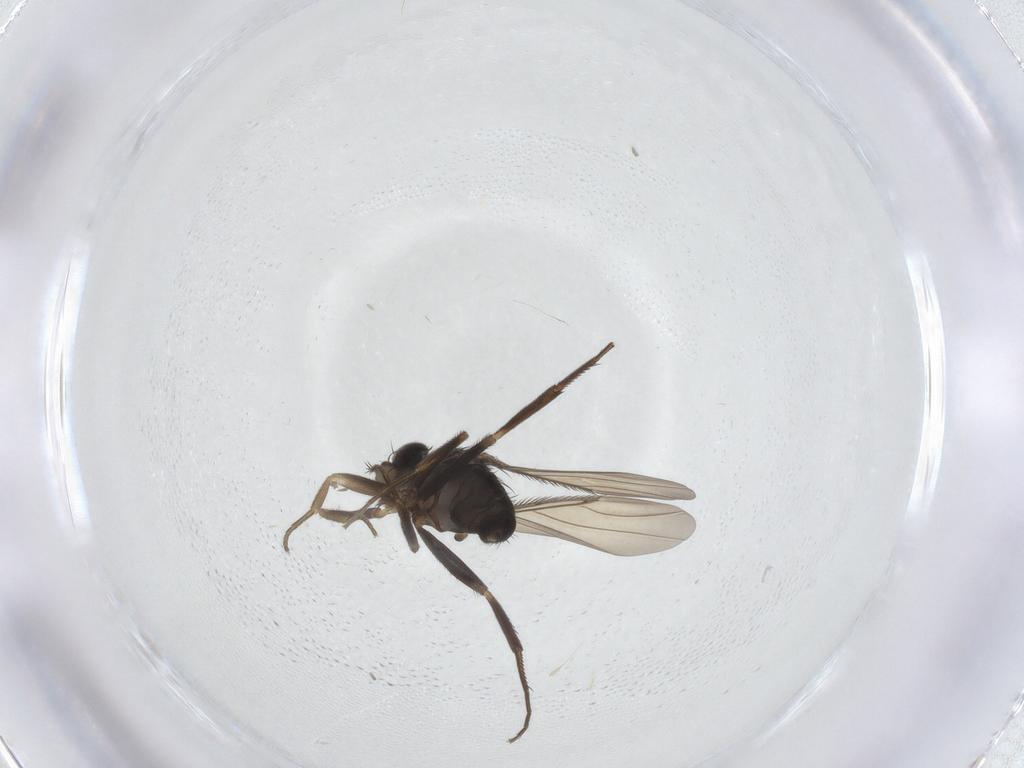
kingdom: Animalia
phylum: Arthropoda
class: Insecta
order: Diptera
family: Phoridae
